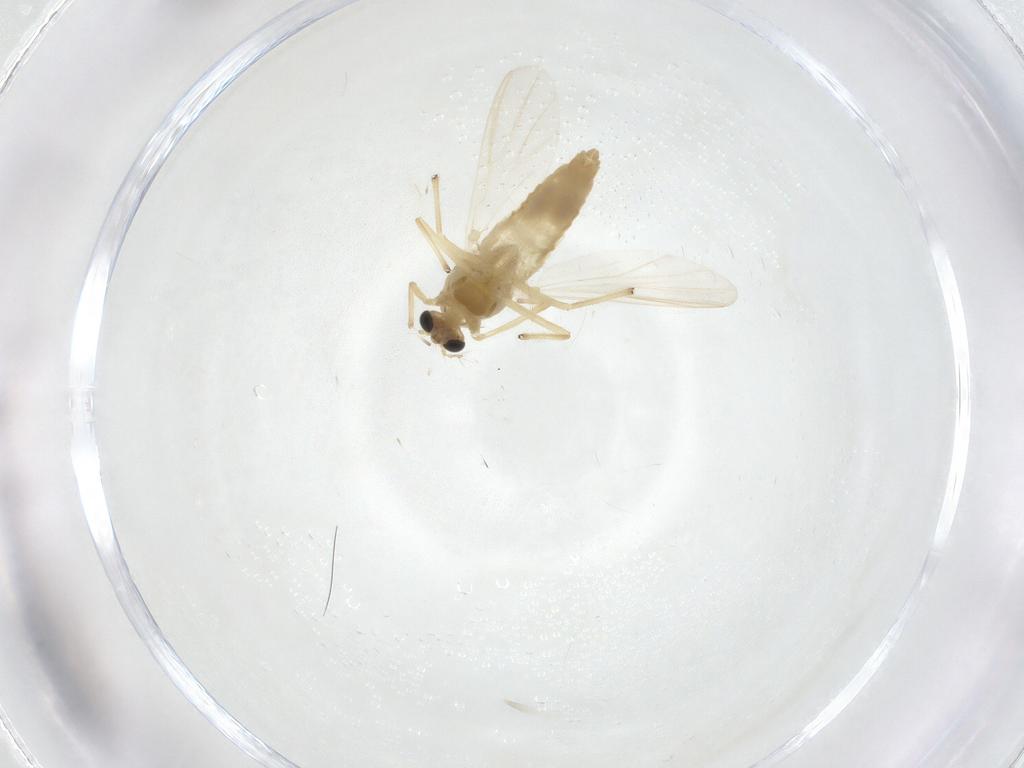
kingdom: Animalia
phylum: Arthropoda
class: Insecta
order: Diptera
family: Chironomidae
